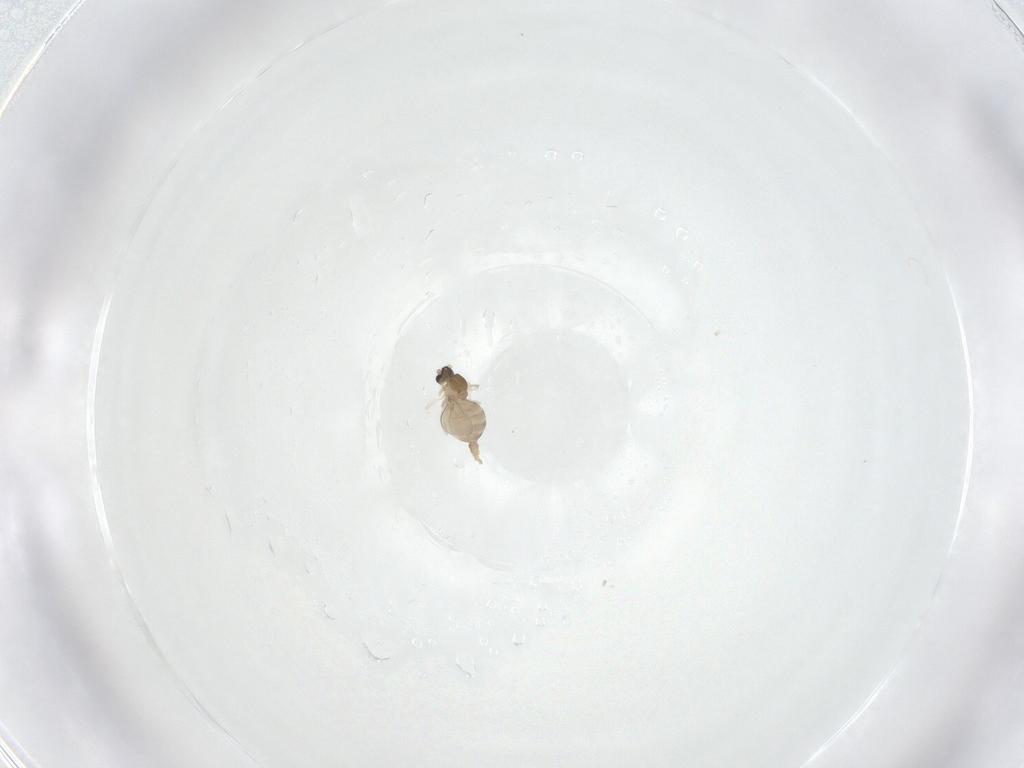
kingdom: Animalia
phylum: Arthropoda
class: Insecta
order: Diptera
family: Cecidomyiidae
